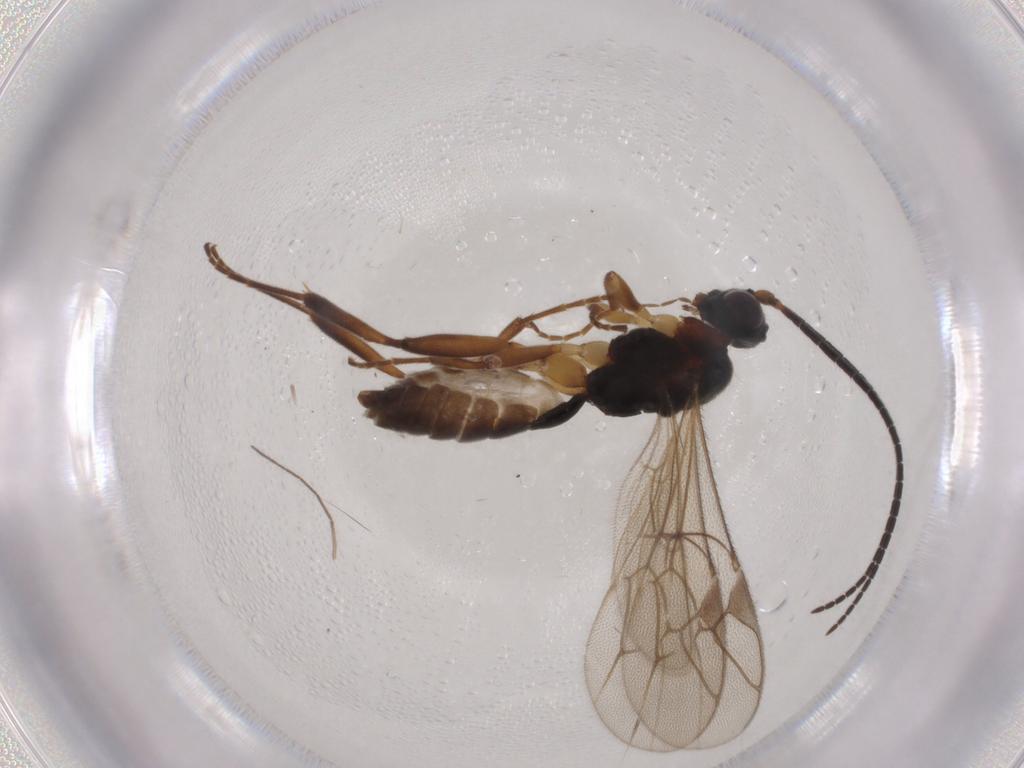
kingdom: Animalia
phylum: Arthropoda
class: Insecta
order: Hymenoptera
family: Ichneumonidae
